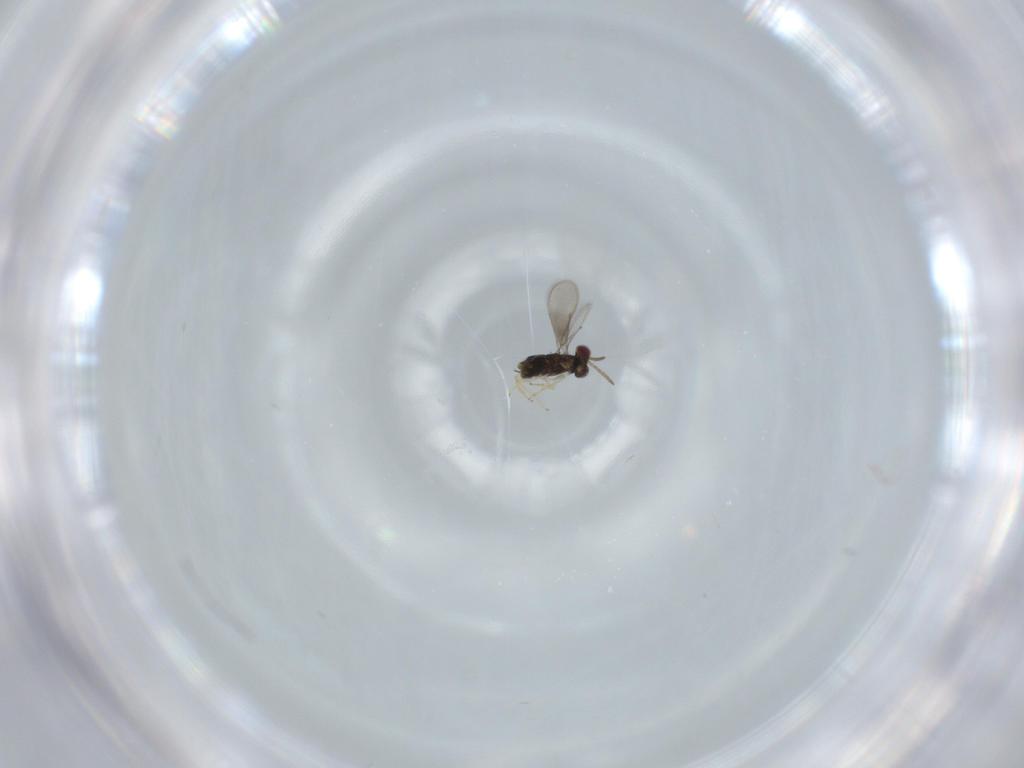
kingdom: Animalia
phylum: Arthropoda
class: Insecta
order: Hymenoptera
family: Aphelinidae
